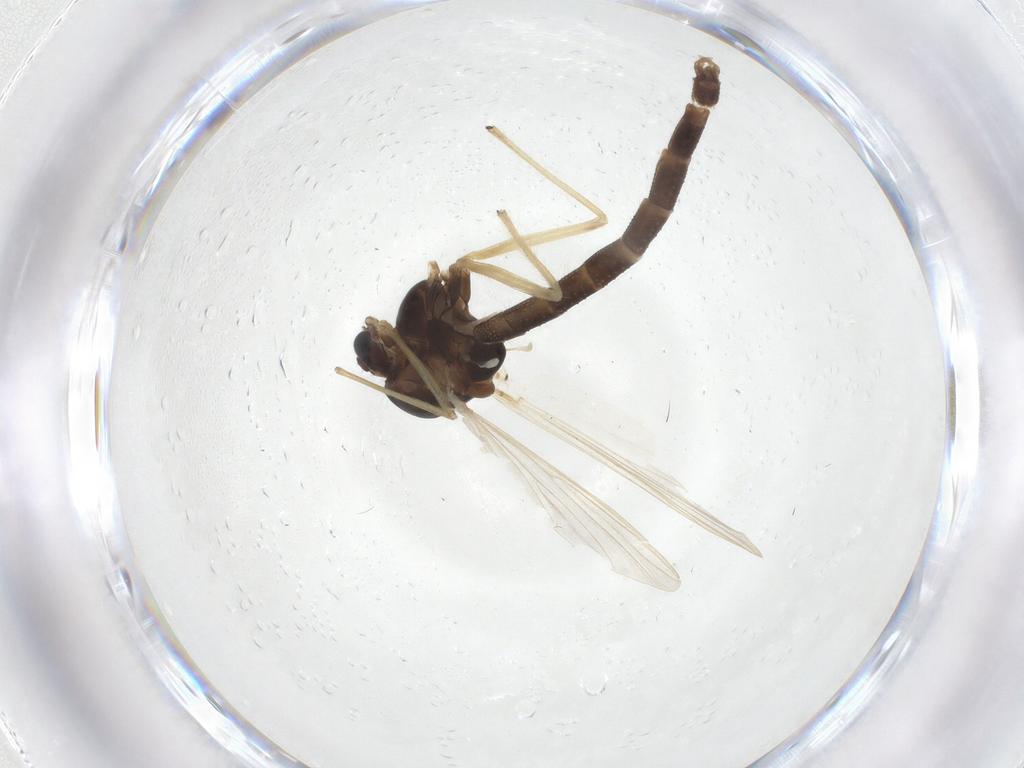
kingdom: Animalia
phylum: Arthropoda
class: Insecta
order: Diptera
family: Chironomidae
